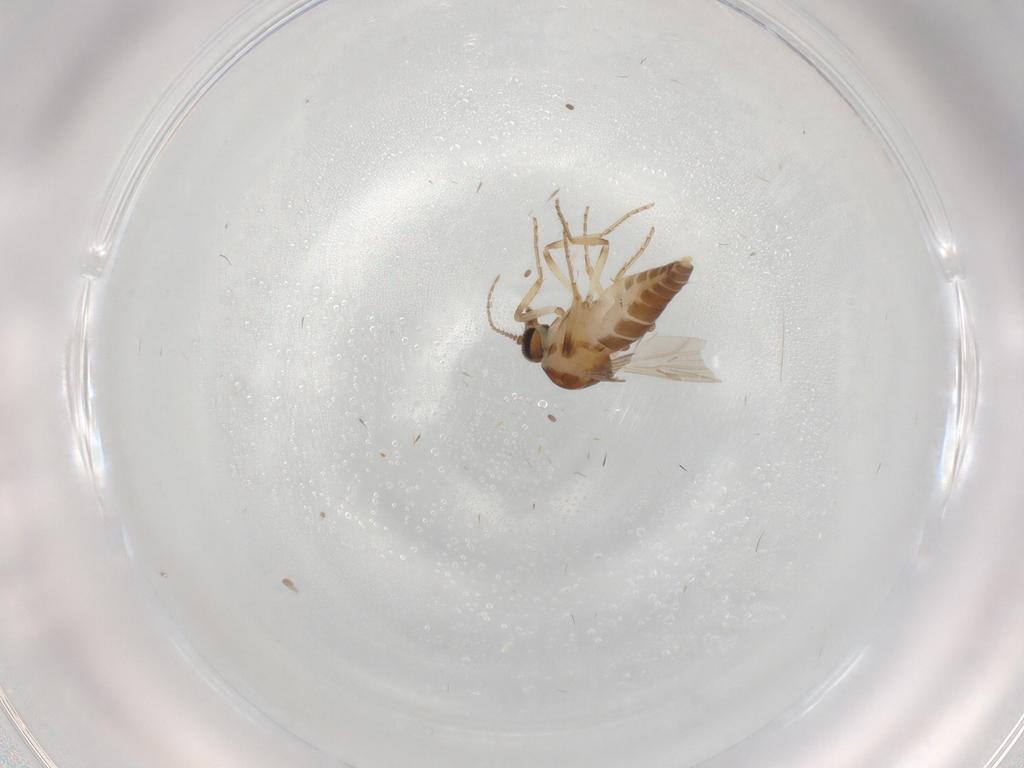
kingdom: Animalia
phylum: Arthropoda
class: Insecta
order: Diptera
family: Ceratopogonidae
